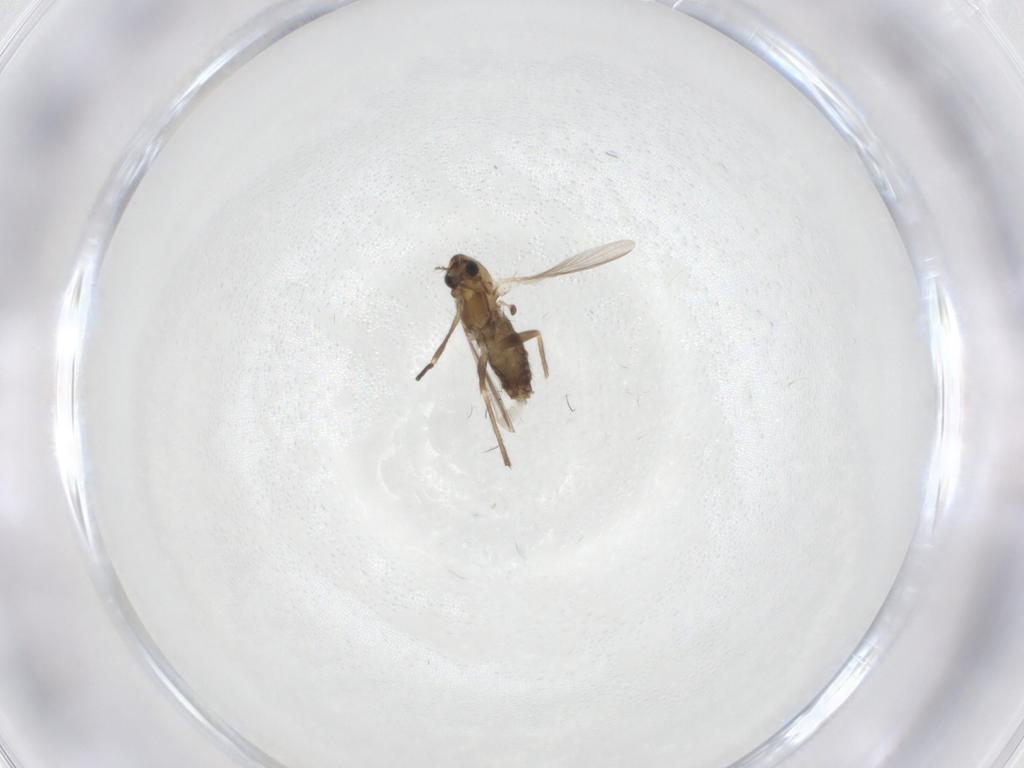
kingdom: Animalia
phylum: Arthropoda
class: Insecta
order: Diptera
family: Chironomidae
